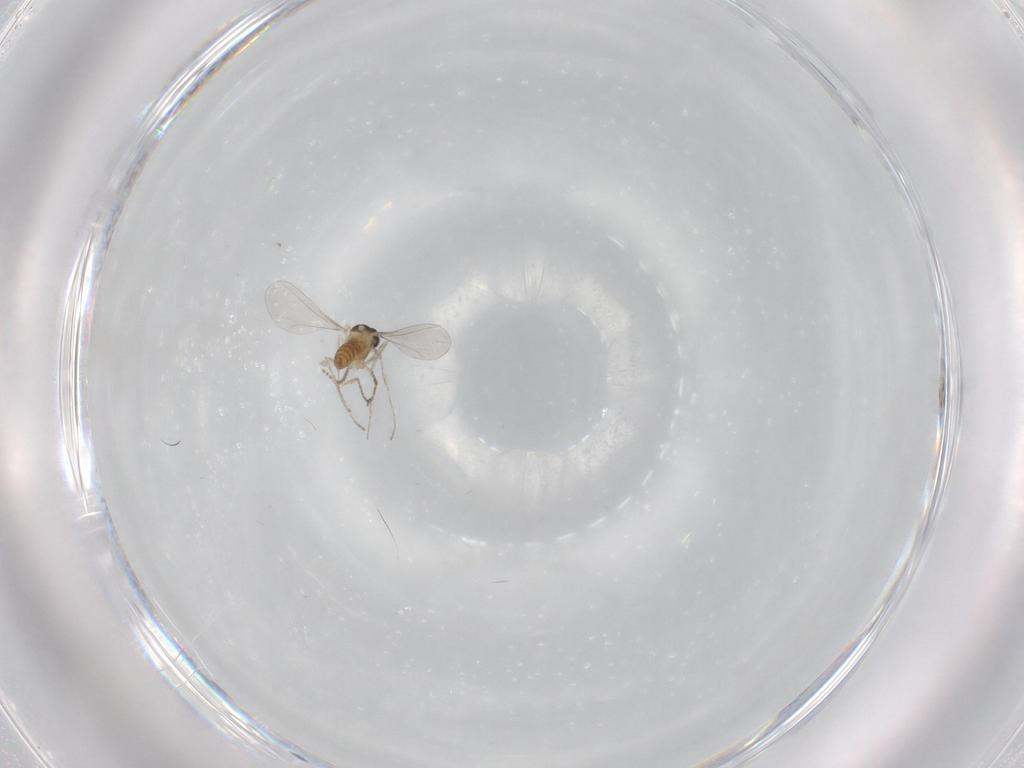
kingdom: Animalia
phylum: Arthropoda
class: Insecta
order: Diptera
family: Cecidomyiidae
